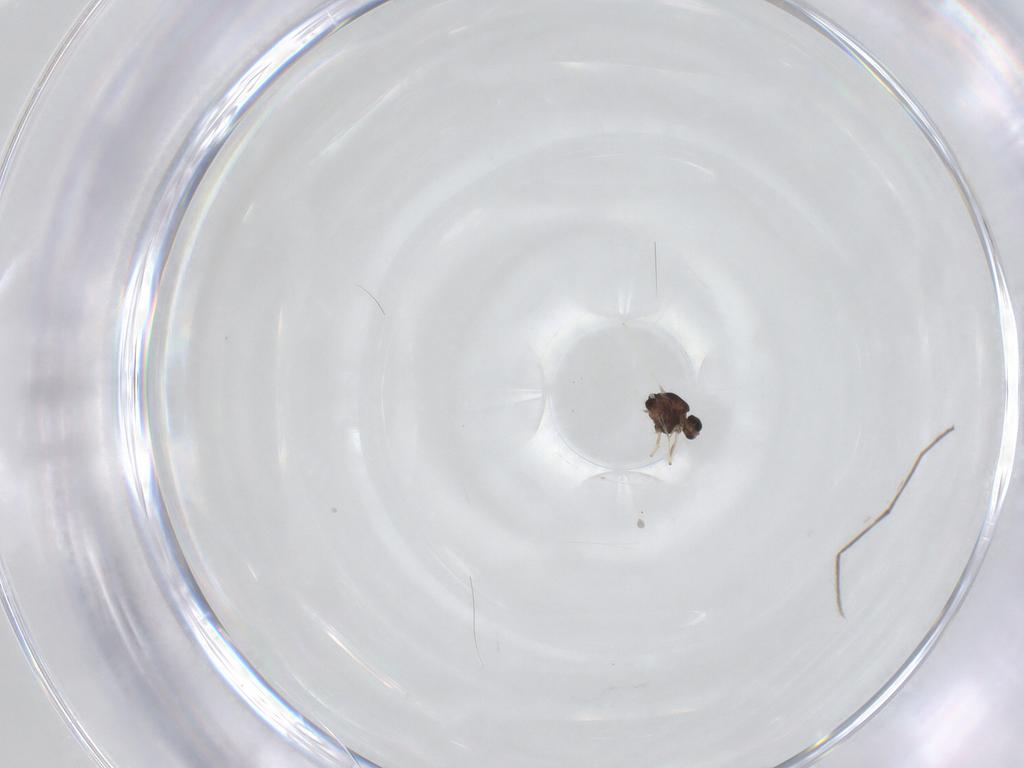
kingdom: Animalia
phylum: Arthropoda
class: Insecta
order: Diptera
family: Chironomidae
